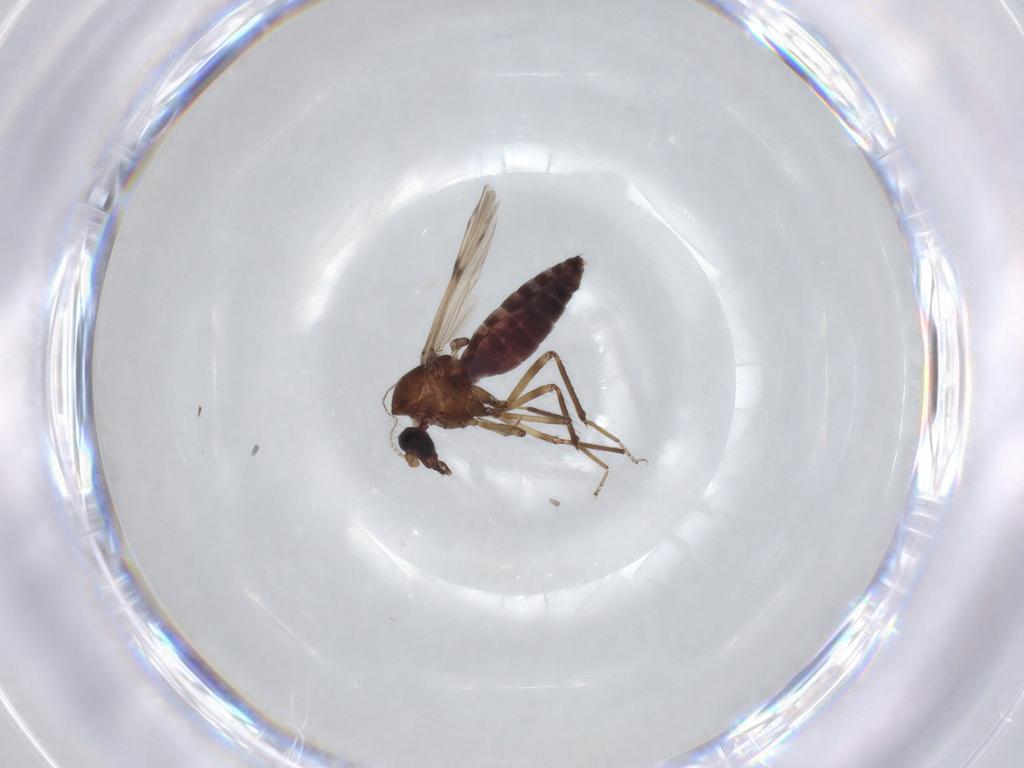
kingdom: Animalia
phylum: Arthropoda
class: Insecta
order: Diptera
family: Ceratopogonidae
